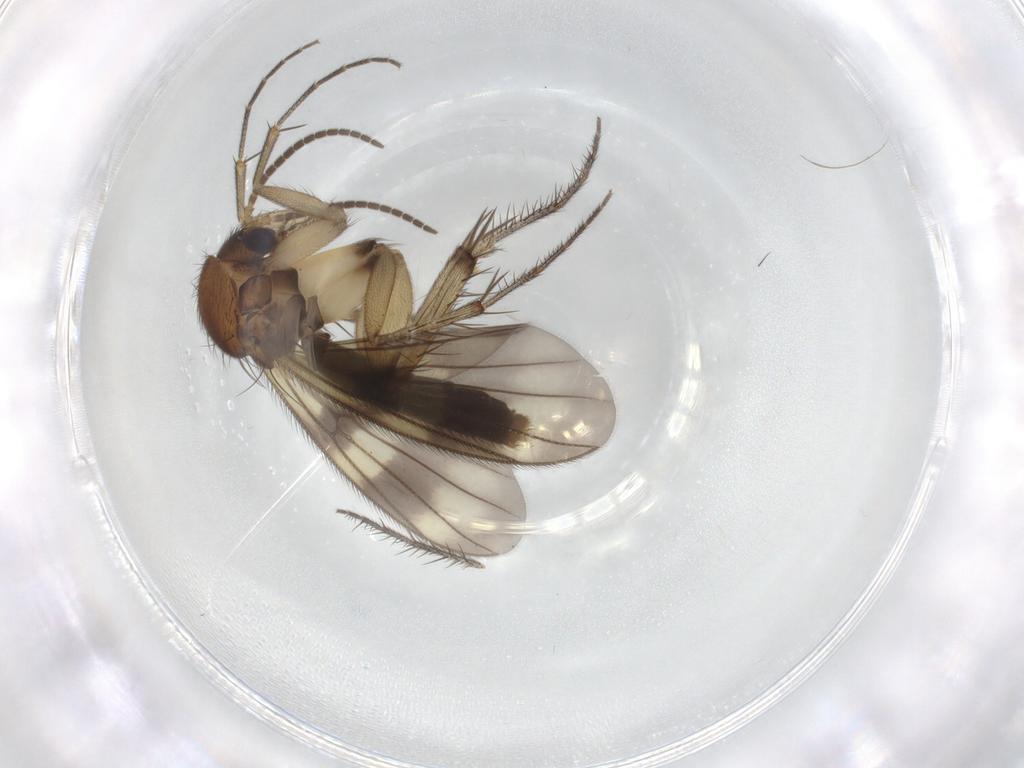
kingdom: Animalia
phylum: Arthropoda
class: Insecta
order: Diptera
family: Mycetophilidae
